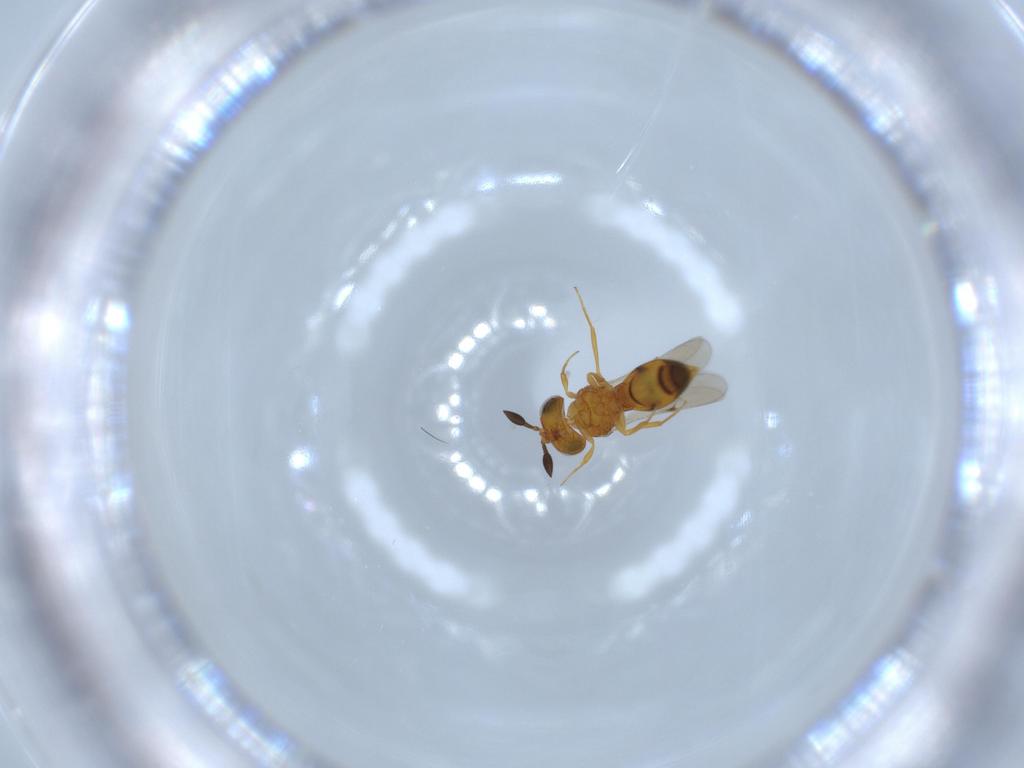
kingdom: Animalia
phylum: Arthropoda
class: Insecta
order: Hymenoptera
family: Scelionidae
